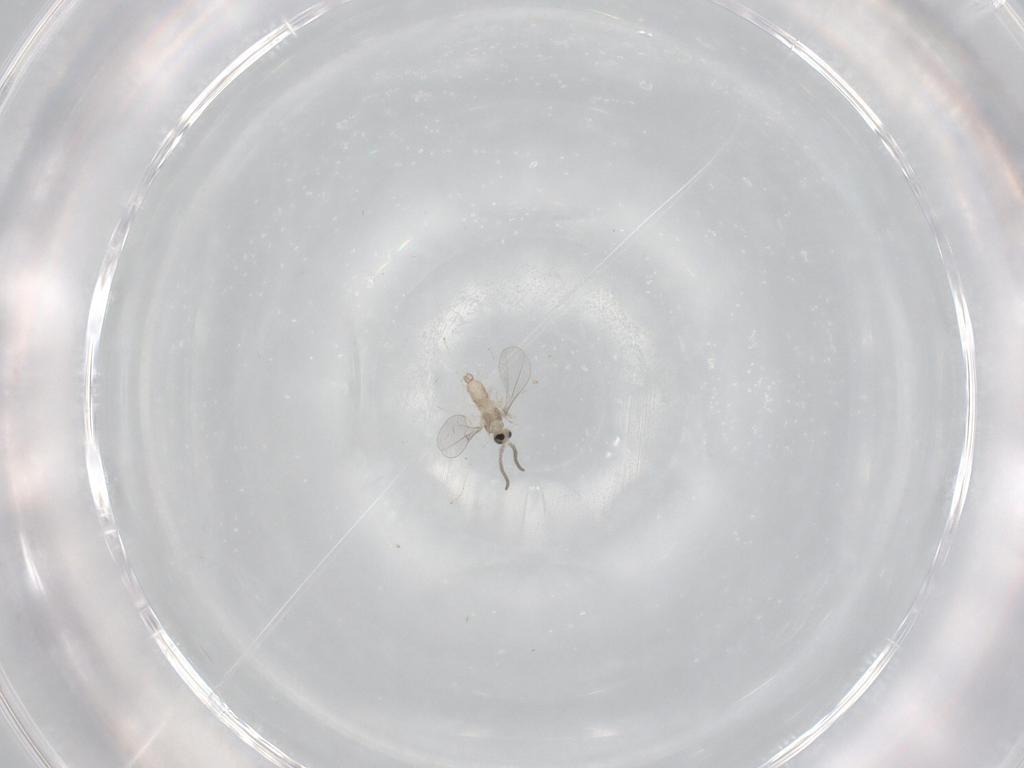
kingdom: Animalia
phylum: Arthropoda
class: Insecta
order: Diptera
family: Cecidomyiidae
